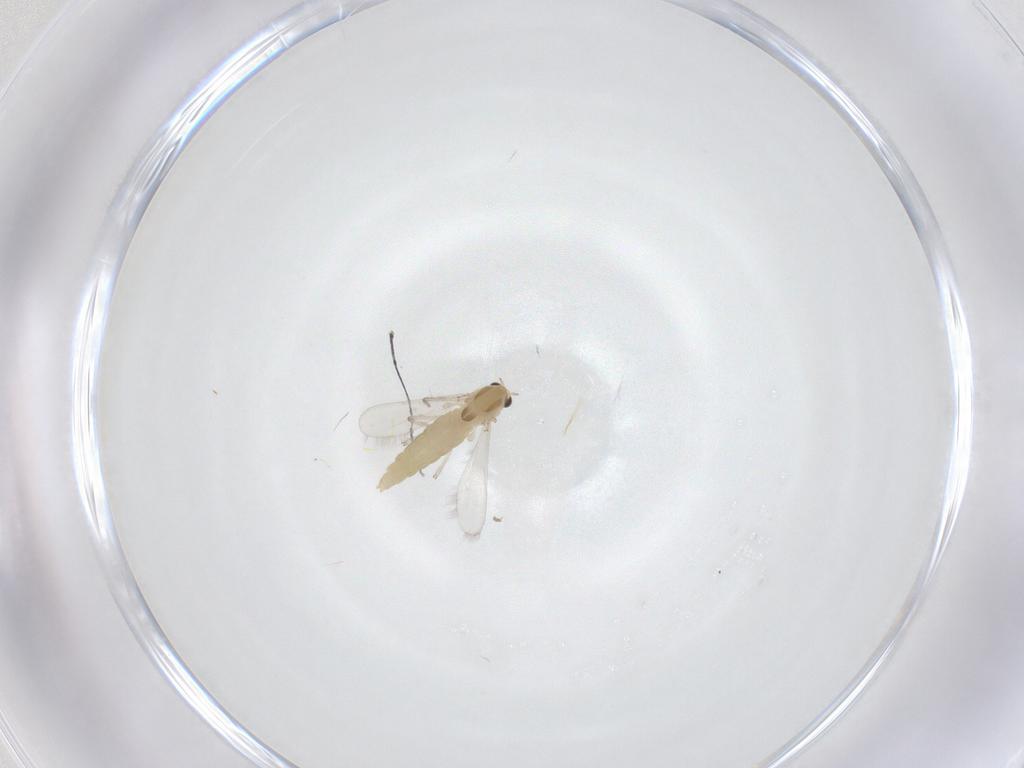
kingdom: Animalia
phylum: Arthropoda
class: Insecta
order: Diptera
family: Chironomidae
